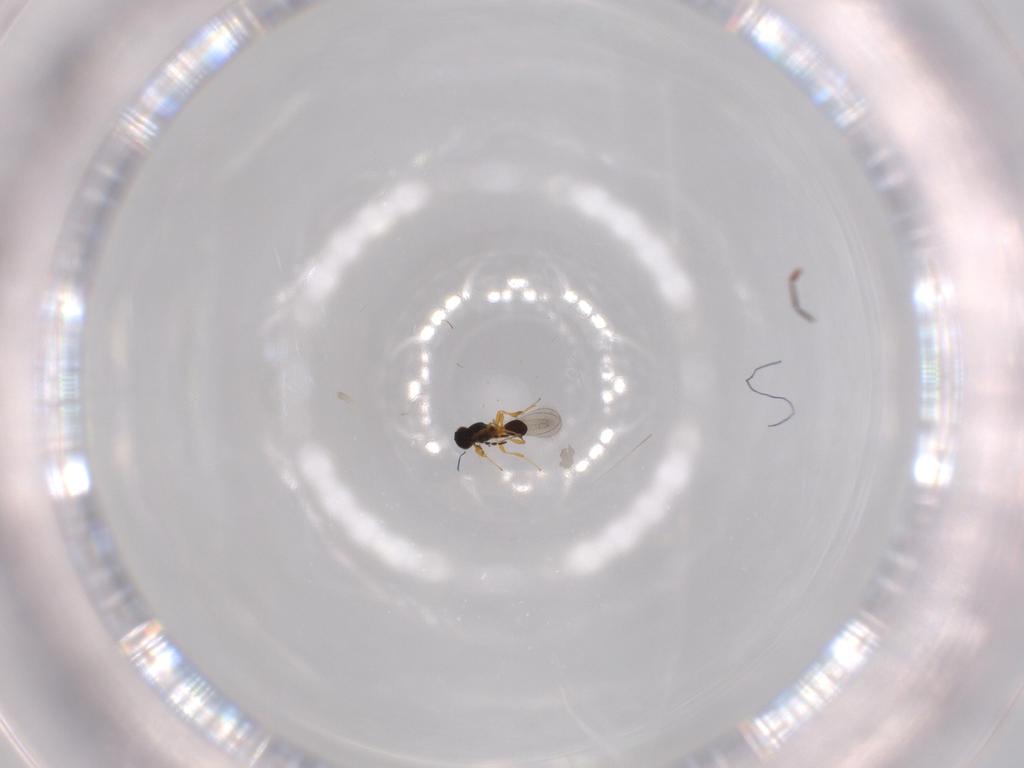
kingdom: Animalia
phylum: Arthropoda
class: Insecta
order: Hymenoptera
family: Platygastridae
